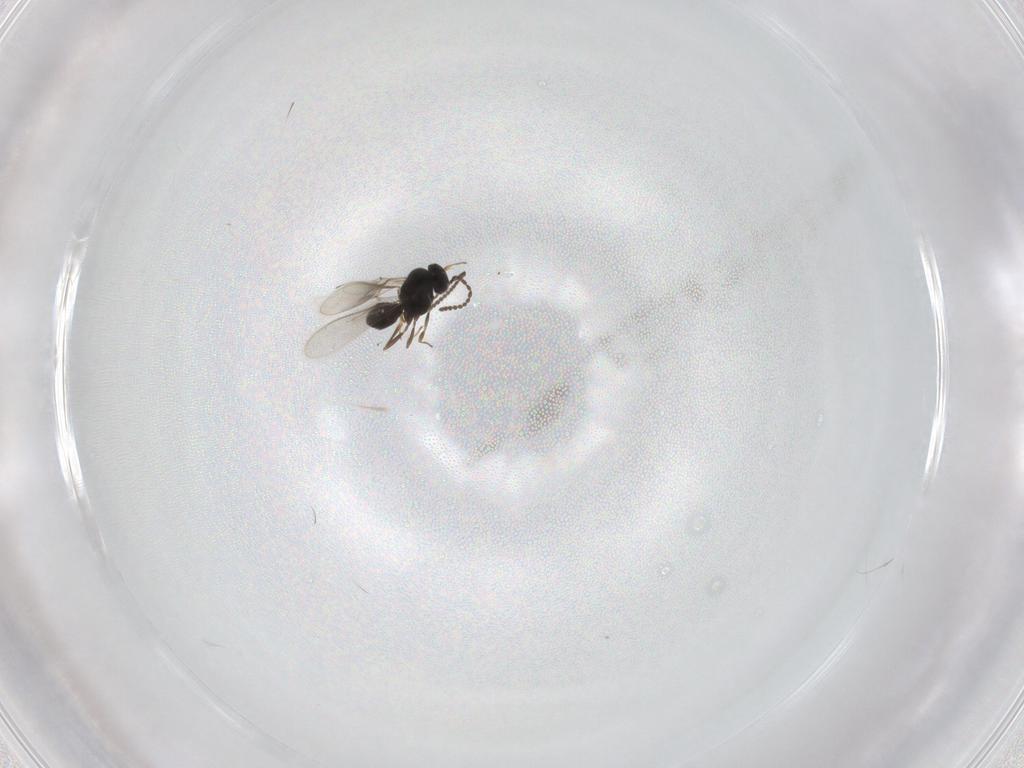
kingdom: Animalia
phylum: Arthropoda
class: Insecta
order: Hymenoptera
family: Scelionidae
